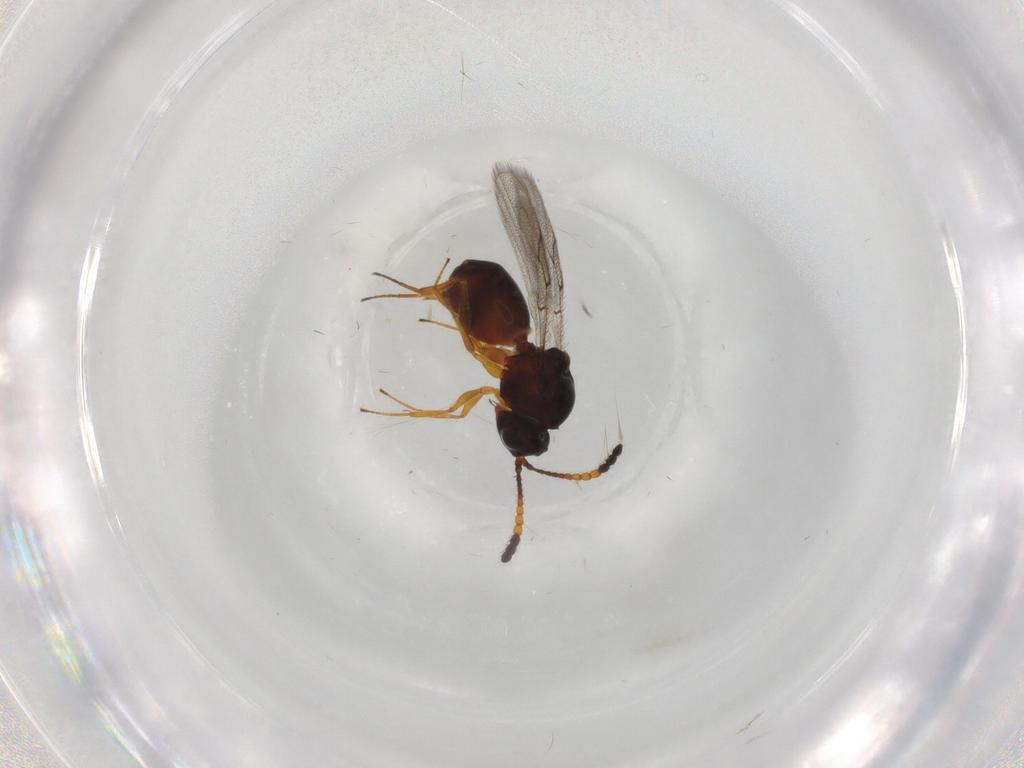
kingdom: Animalia
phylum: Arthropoda
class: Insecta
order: Hymenoptera
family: Figitidae
